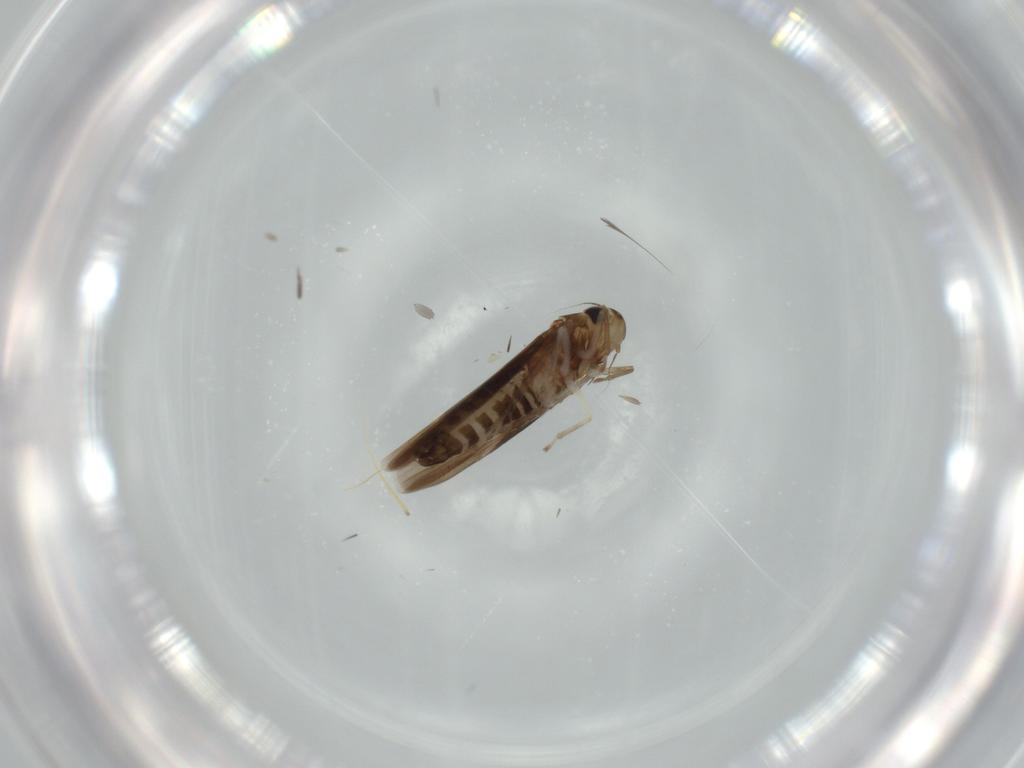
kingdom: Animalia
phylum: Arthropoda
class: Insecta
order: Hemiptera
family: Cicadellidae
